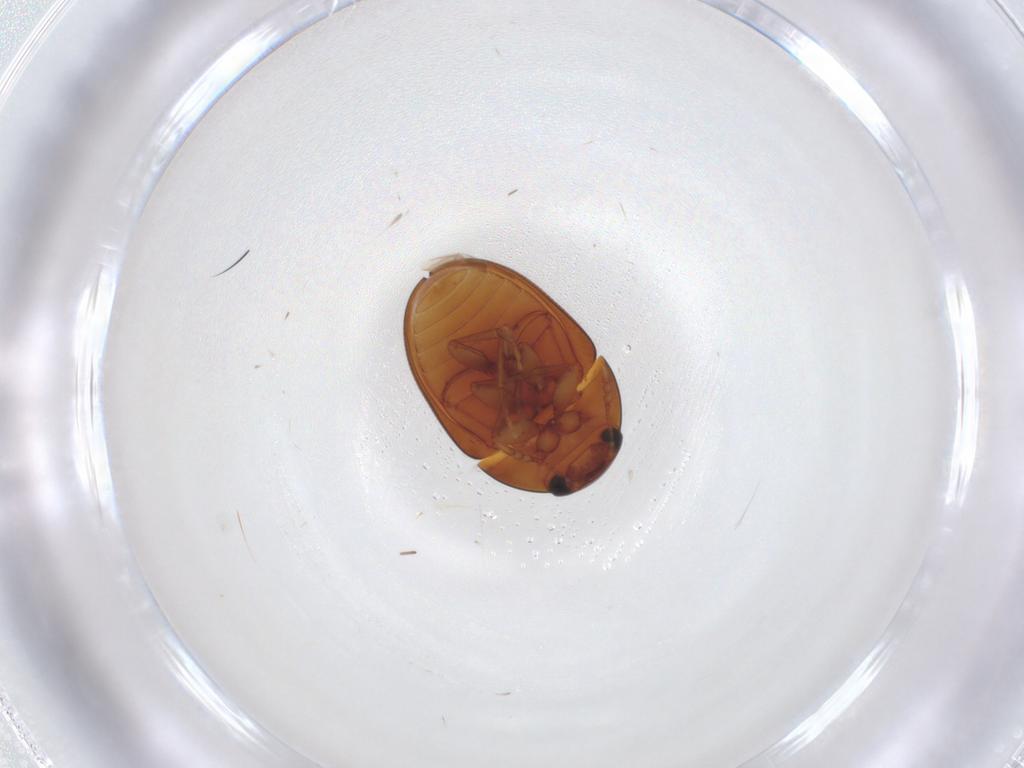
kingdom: Animalia
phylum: Arthropoda
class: Insecta
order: Coleoptera
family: Phalacridae
